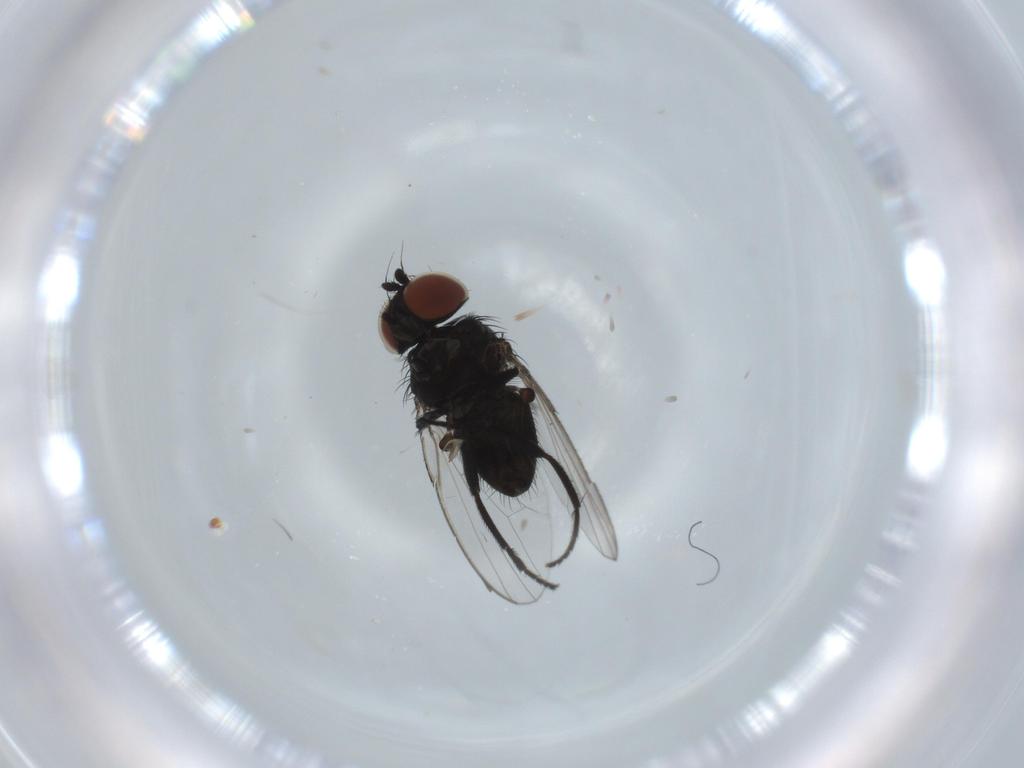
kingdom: Animalia
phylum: Arthropoda
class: Insecta
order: Diptera
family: Milichiidae
